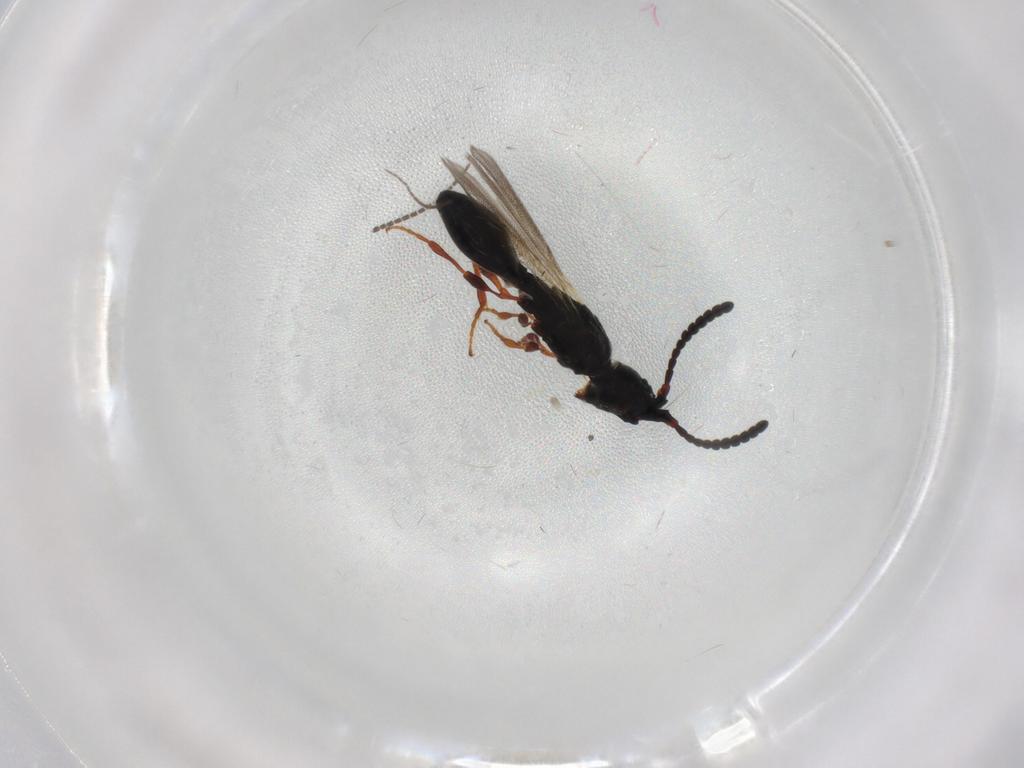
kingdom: Animalia
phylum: Arthropoda
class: Insecta
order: Hymenoptera
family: Diapriidae
